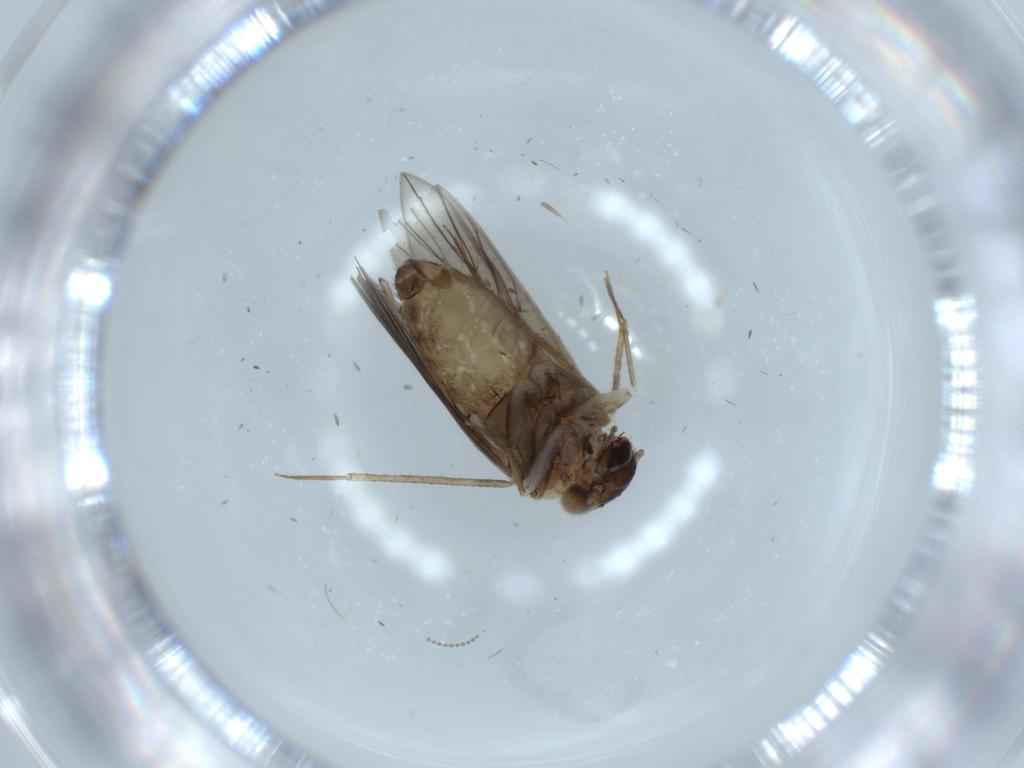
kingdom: Animalia
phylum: Arthropoda
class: Insecta
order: Psocodea
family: Lepidopsocidae
